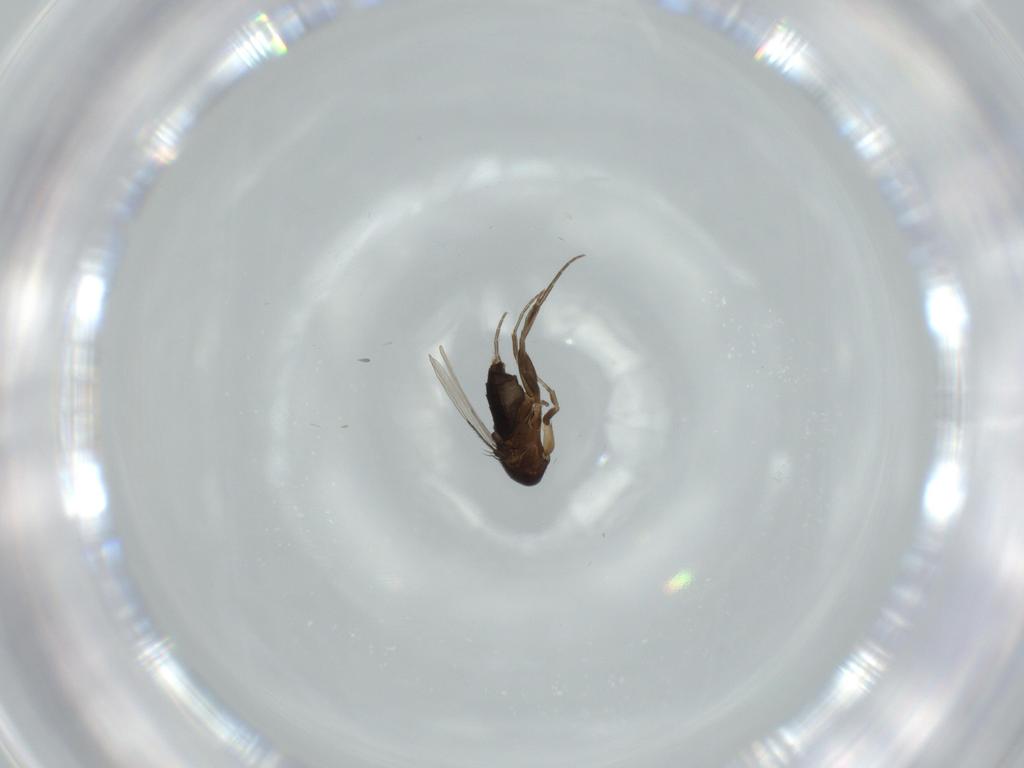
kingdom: Animalia
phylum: Arthropoda
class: Insecta
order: Diptera
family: Phoridae
